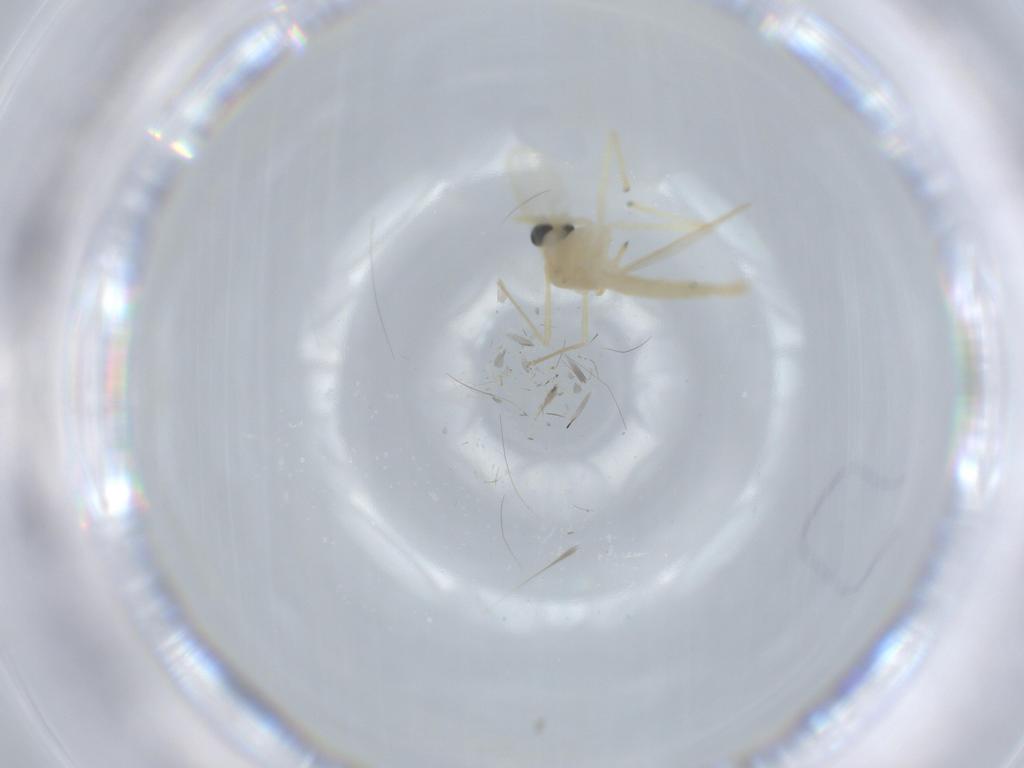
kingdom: Animalia
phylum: Arthropoda
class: Insecta
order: Diptera
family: Chironomidae
